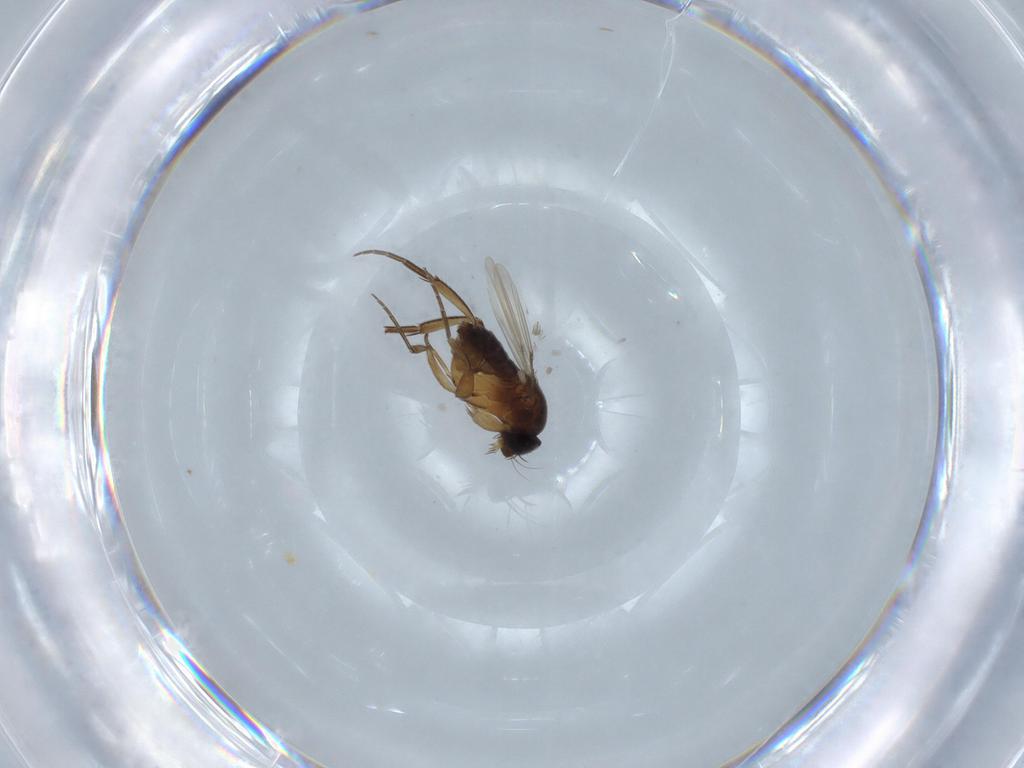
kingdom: Animalia
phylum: Arthropoda
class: Insecta
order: Diptera
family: Phoridae
